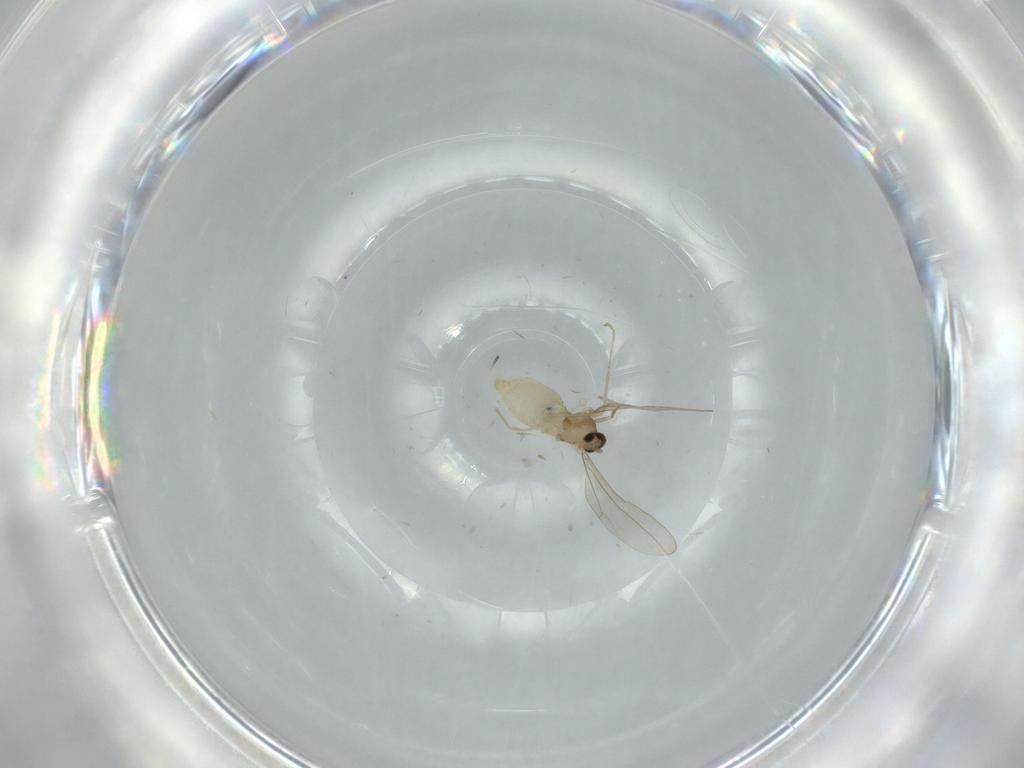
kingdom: Animalia
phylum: Arthropoda
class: Insecta
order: Diptera
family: Cecidomyiidae
